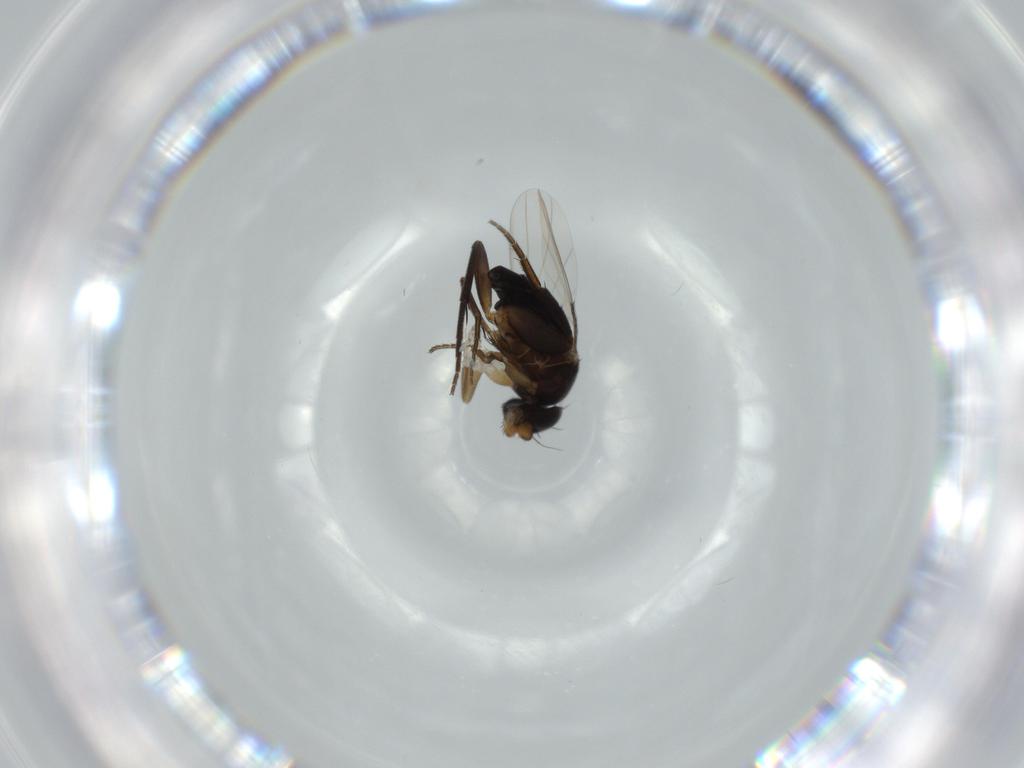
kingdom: Animalia
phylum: Arthropoda
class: Insecta
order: Diptera
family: Phoridae
